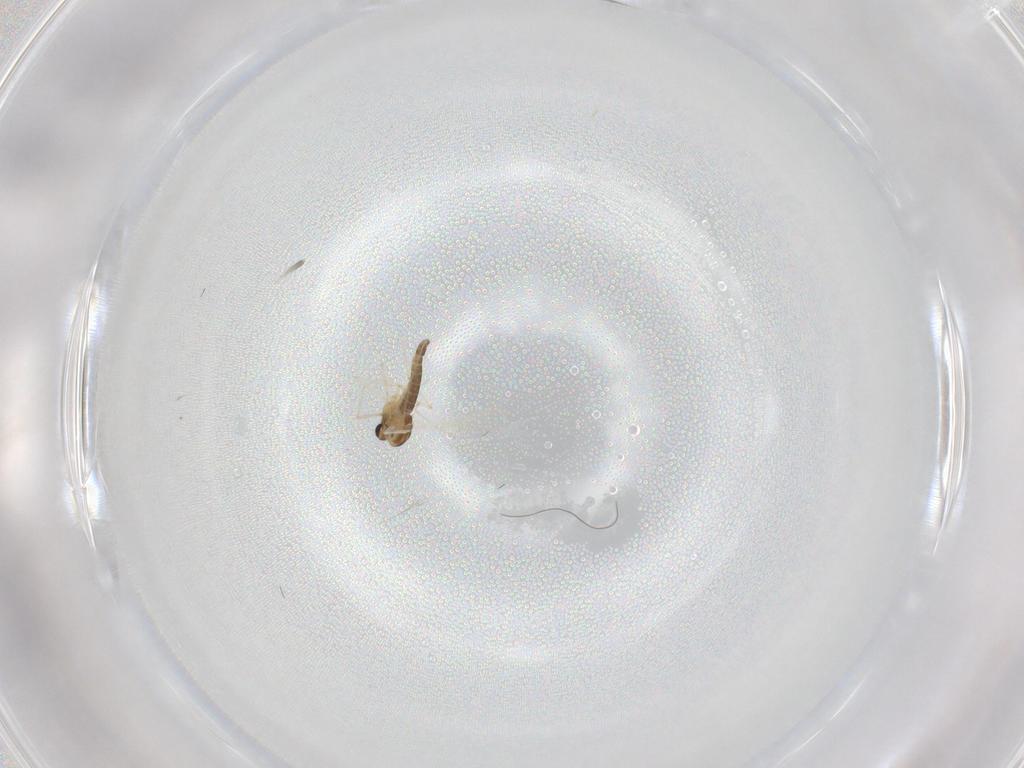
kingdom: Animalia
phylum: Arthropoda
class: Insecta
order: Diptera
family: Chironomidae
